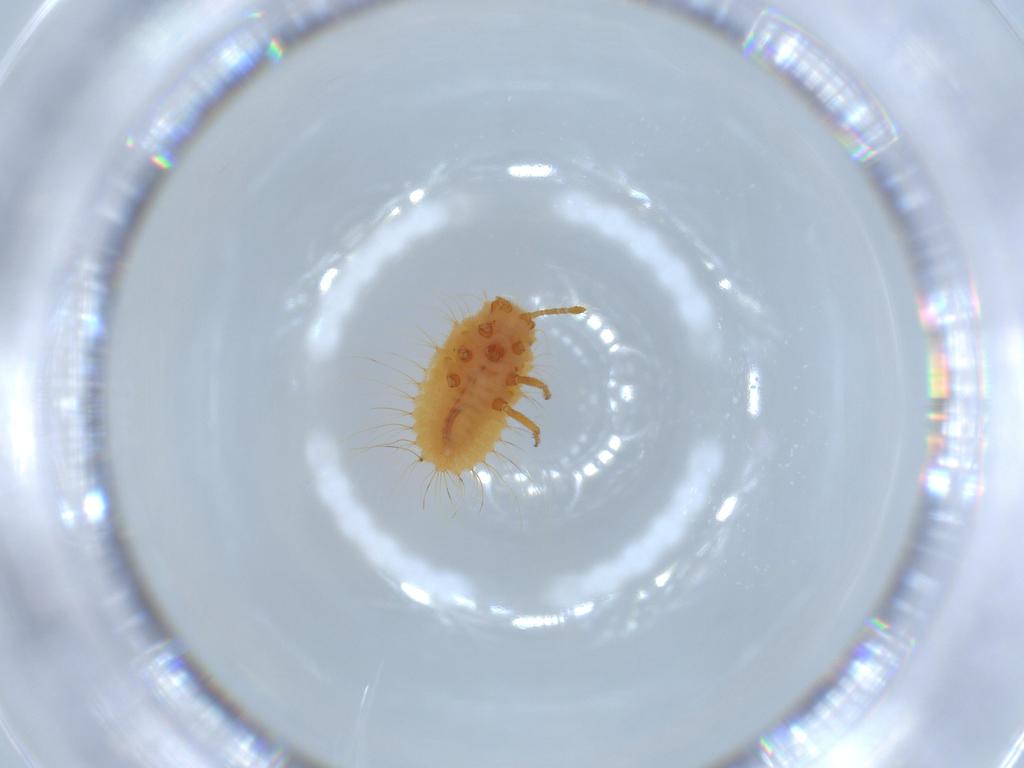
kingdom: Animalia
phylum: Arthropoda
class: Insecta
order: Hemiptera
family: Coccoidea_incertae_sedis
